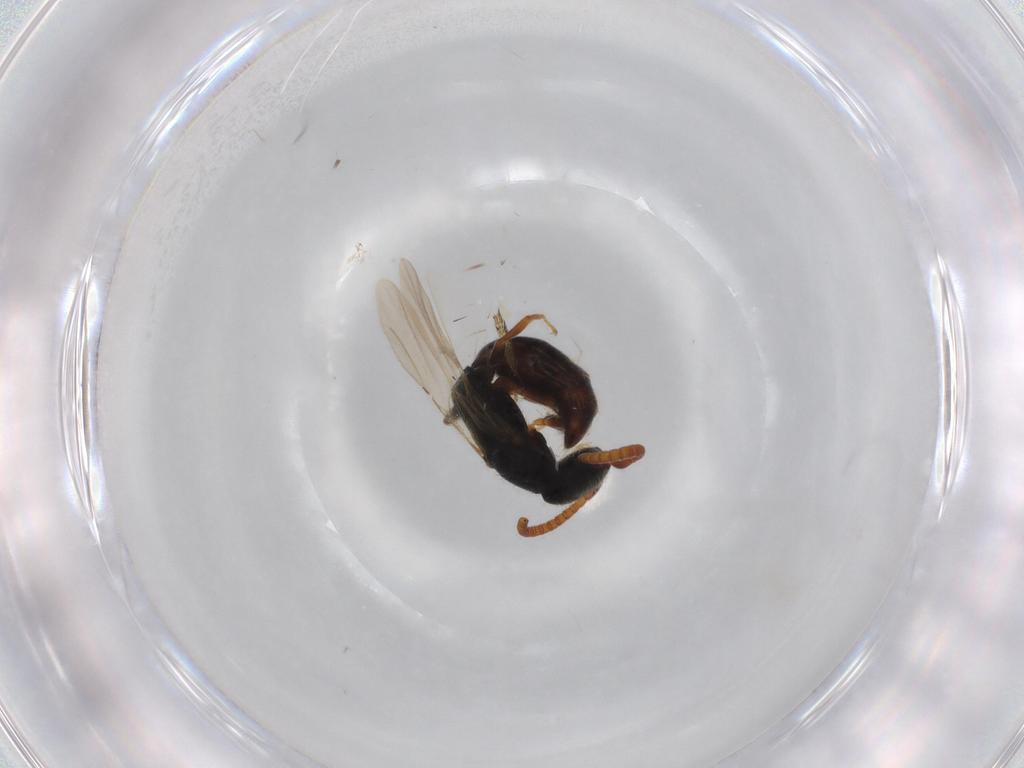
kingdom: Animalia
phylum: Arthropoda
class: Insecta
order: Hymenoptera
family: Bethylidae
